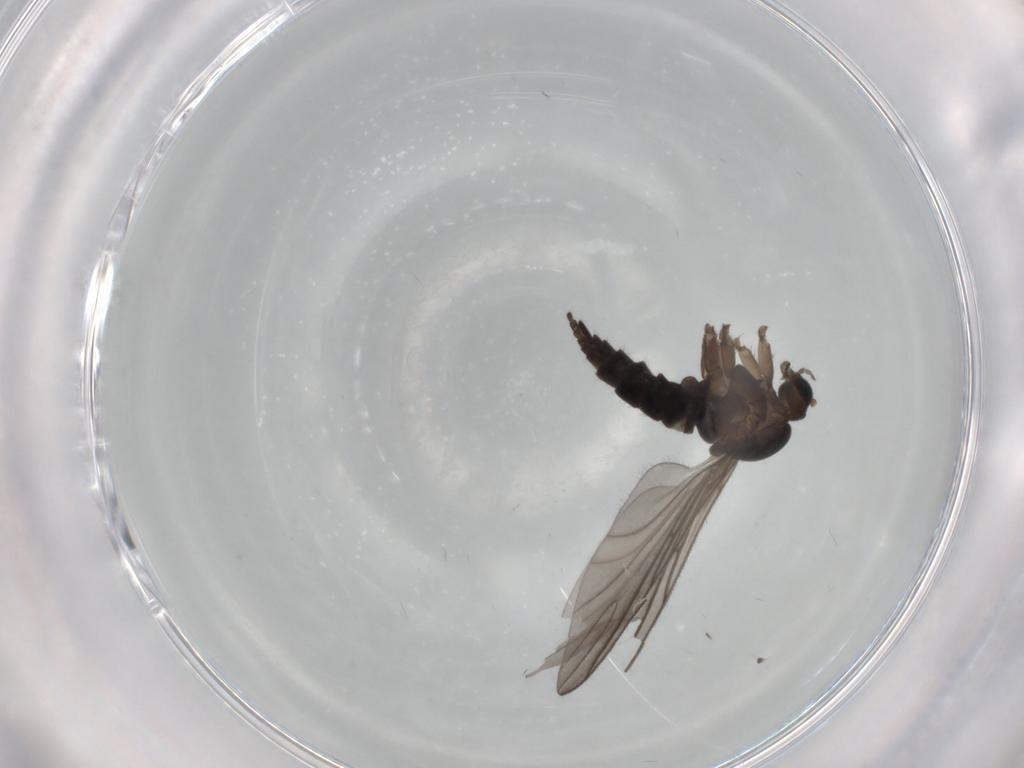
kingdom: Animalia
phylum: Arthropoda
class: Insecta
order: Diptera
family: Sciaridae
